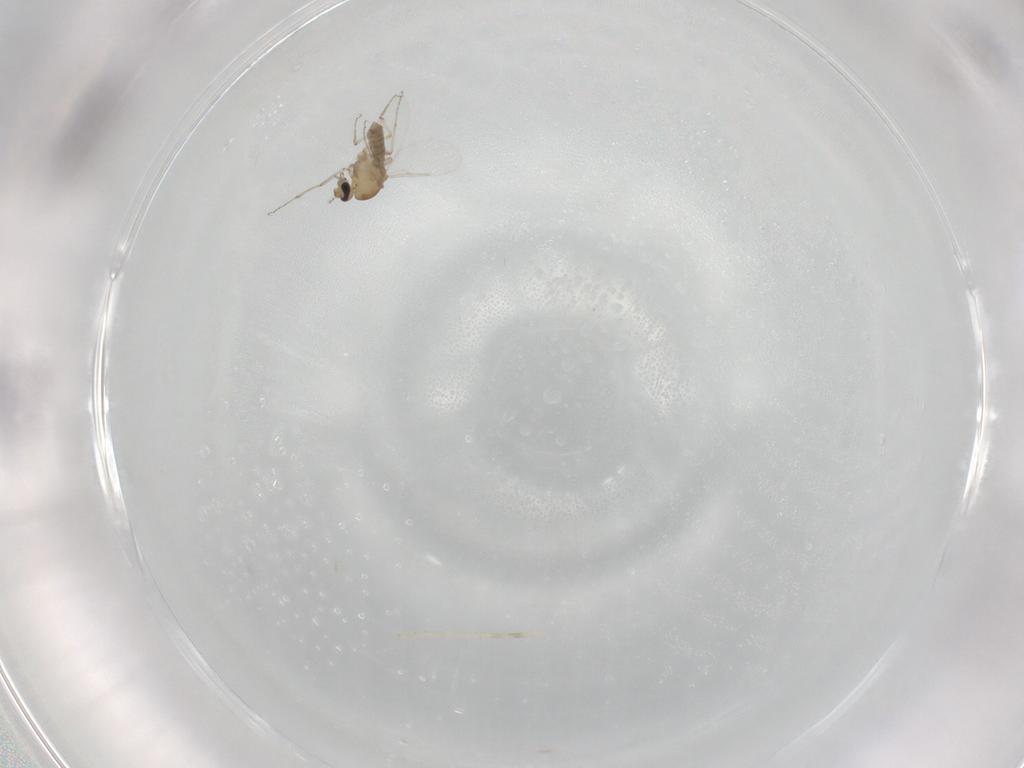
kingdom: Animalia
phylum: Arthropoda
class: Insecta
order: Diptera
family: Ceratopogonidae
